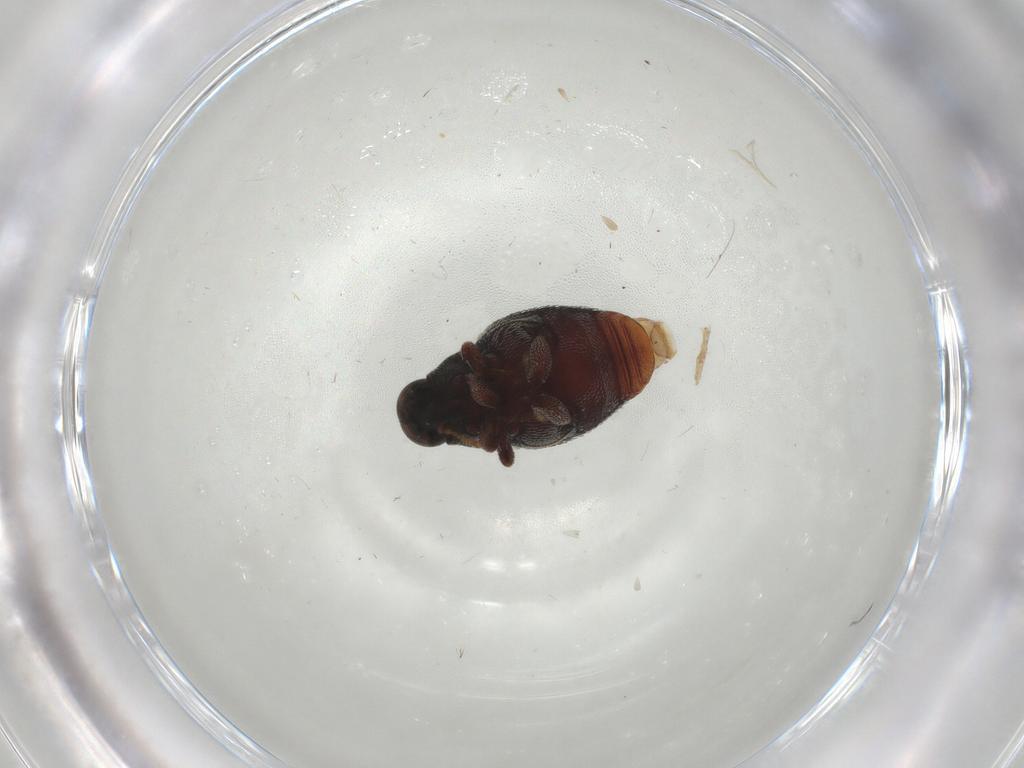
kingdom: Animalia
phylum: Arthropoda
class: Insecta
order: Coleoptera
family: Curculionidae
